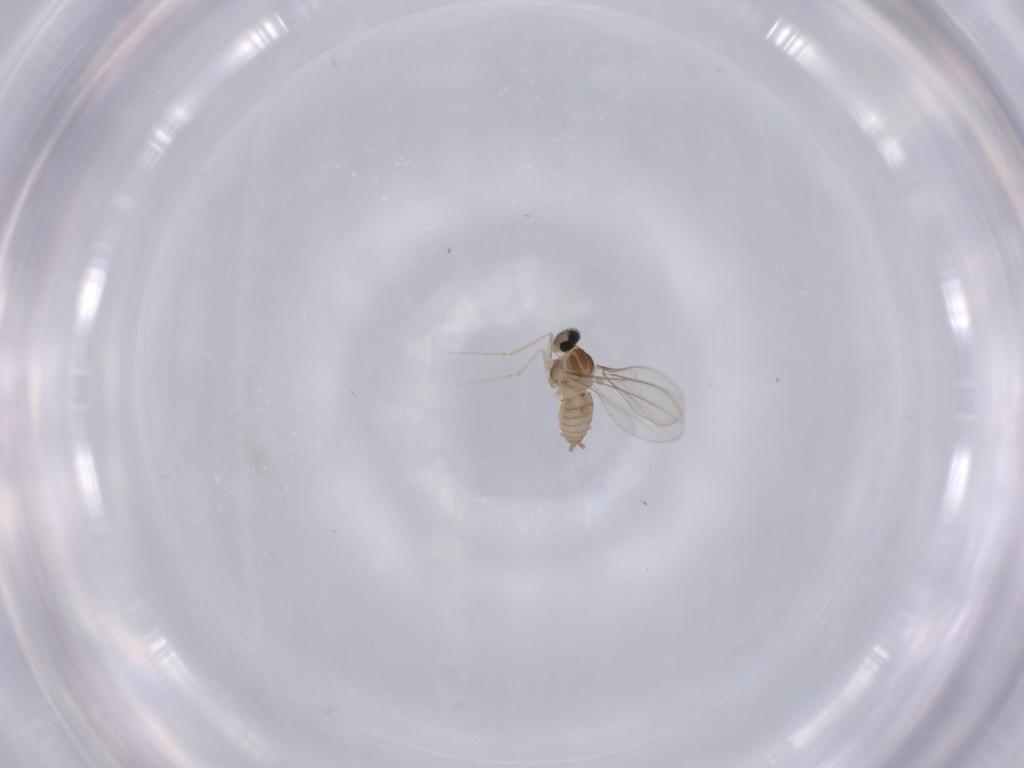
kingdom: Animalia
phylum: Arthropoda
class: Insecta
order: Diptera
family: Cecidomyiidae
